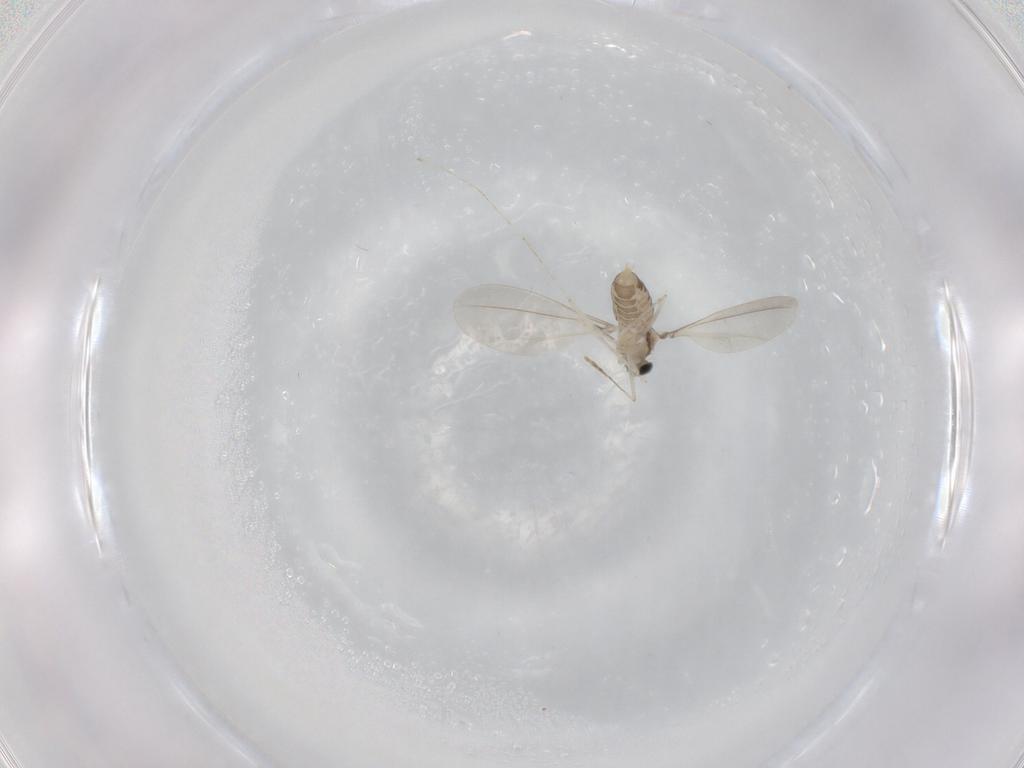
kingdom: Animalia
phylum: Arthropoda
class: Insecta
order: Diptera
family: Cecidomyiidae
